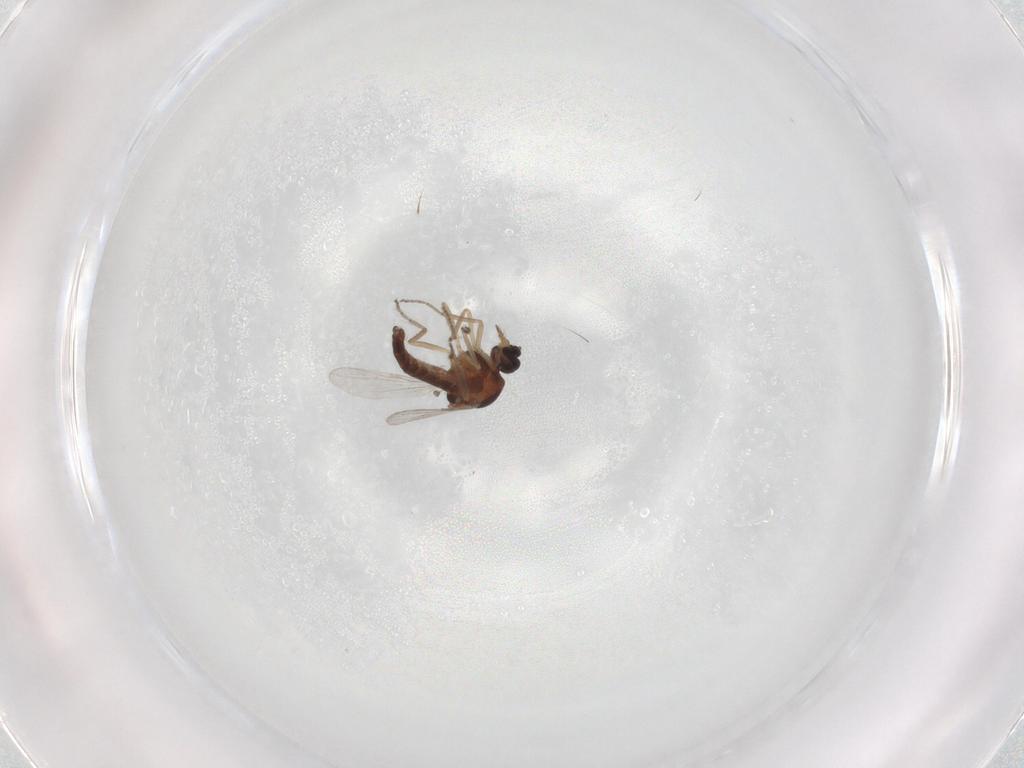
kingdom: Animalia
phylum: Arthropoda
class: Insecta
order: Diptera
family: Ceratopogonidae
